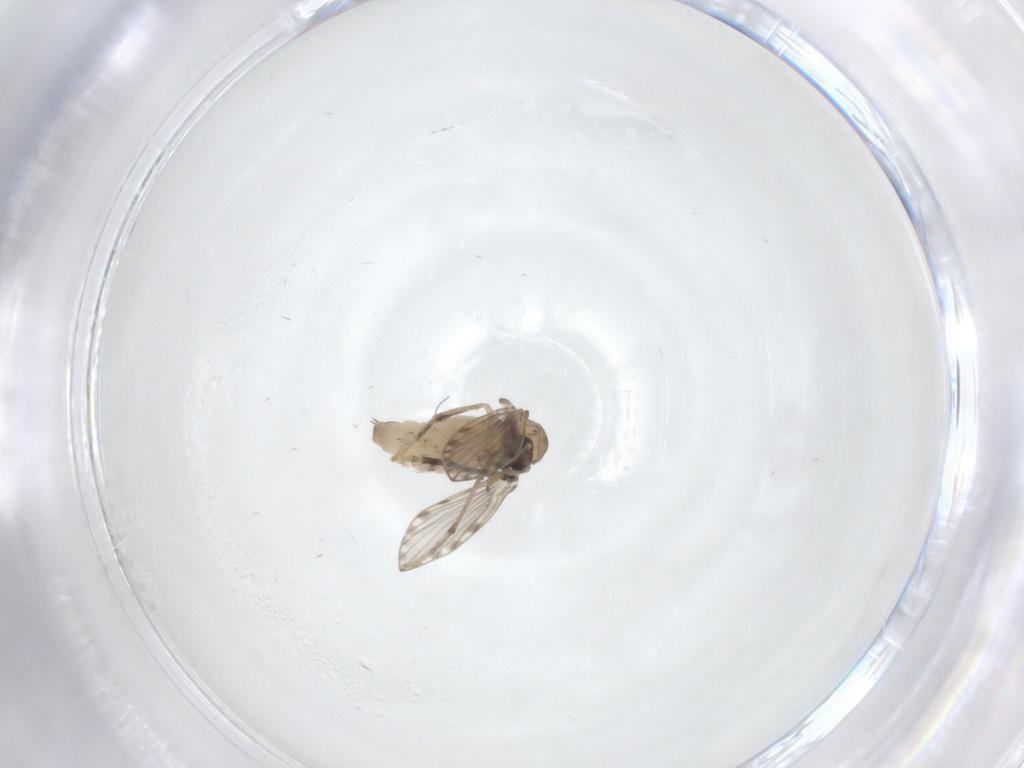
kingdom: Animalia
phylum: Arthropoda
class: Insecta
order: Diptera
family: Psychodidae
